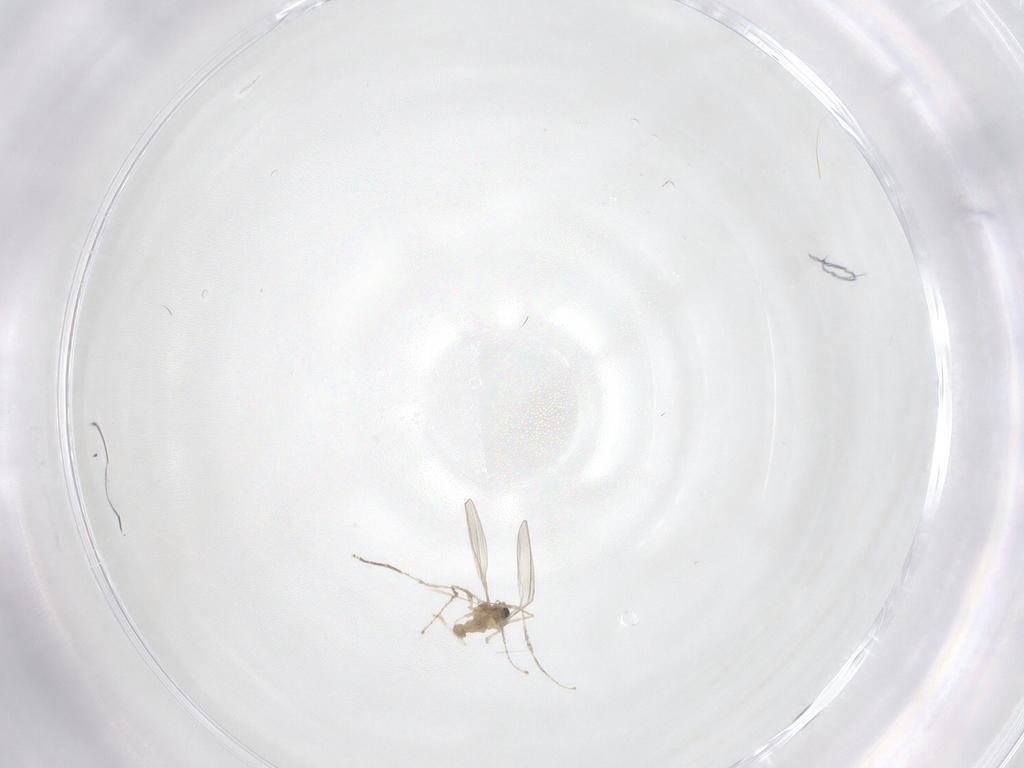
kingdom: Animalia
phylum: Arthropoda
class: Insecta
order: Diptera
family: Cecidomyiidae
